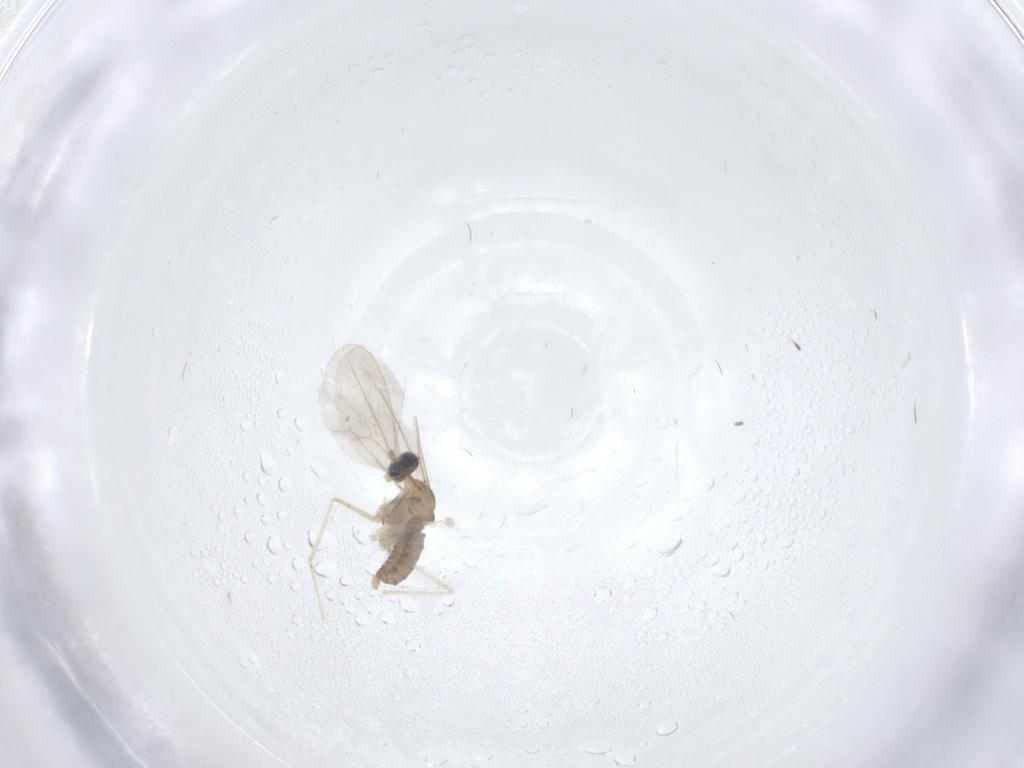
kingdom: Animalia
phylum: Arthropoda
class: Insecta
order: Diptera
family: Cecidomyiidae
